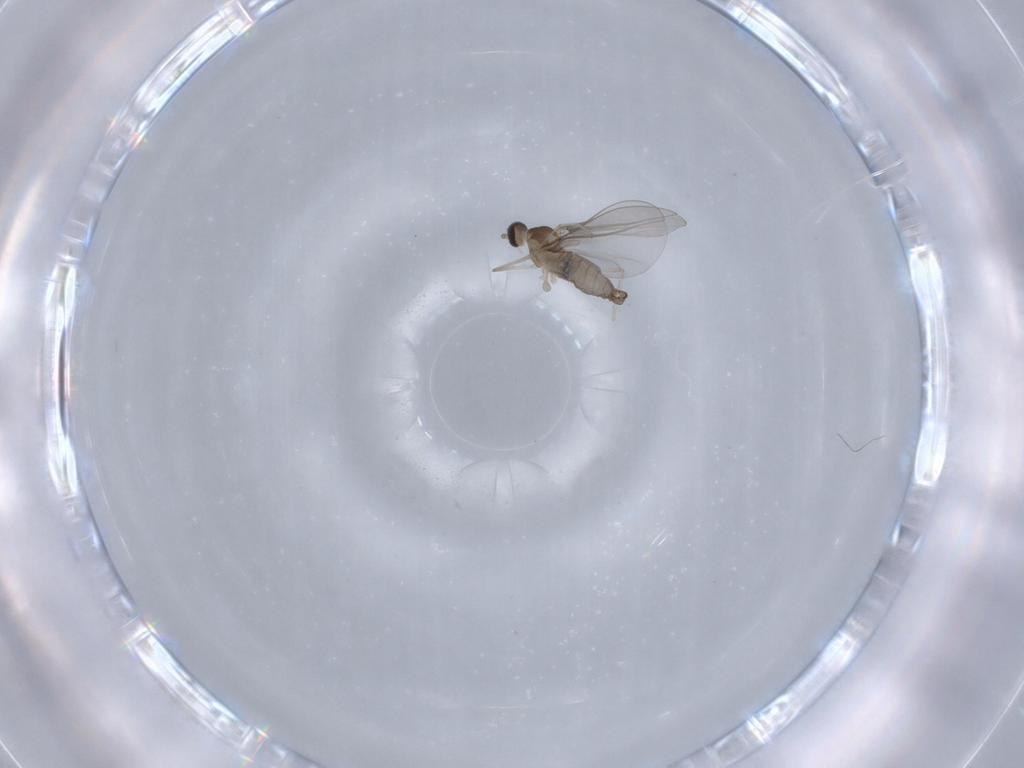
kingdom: Animalia
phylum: Arthropoda
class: Insecta
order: Diptera
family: Cecidomyiidae
